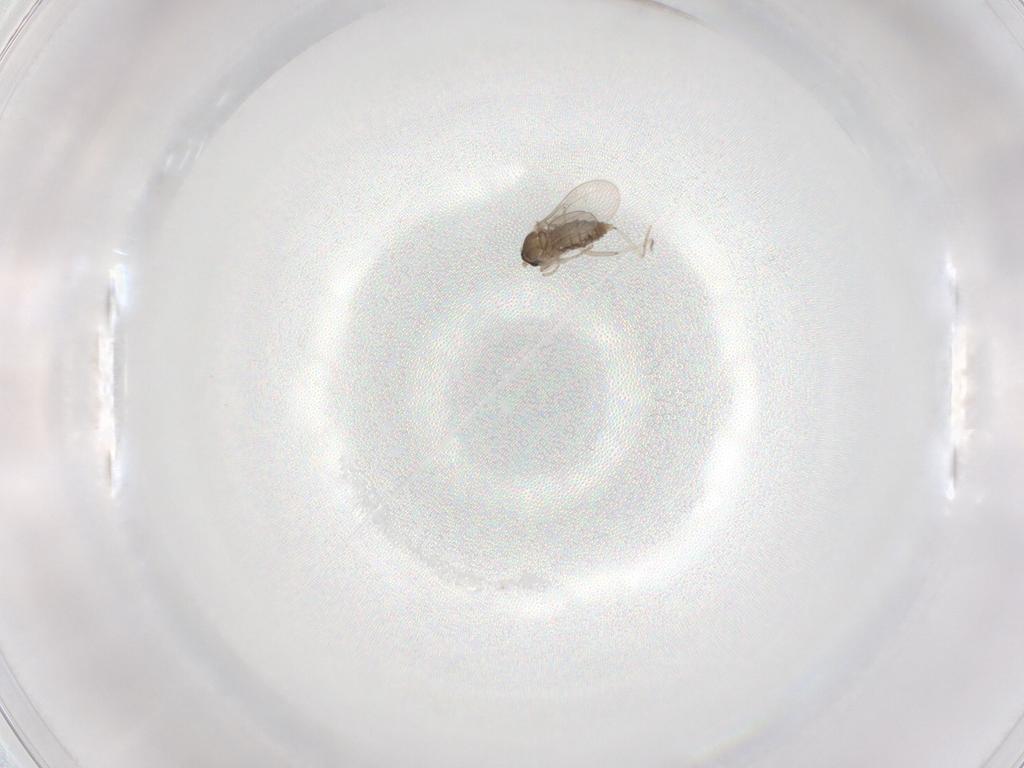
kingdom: Animalia
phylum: Arthropoda
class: Insecta
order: Diptera
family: Cecidomyiidae
